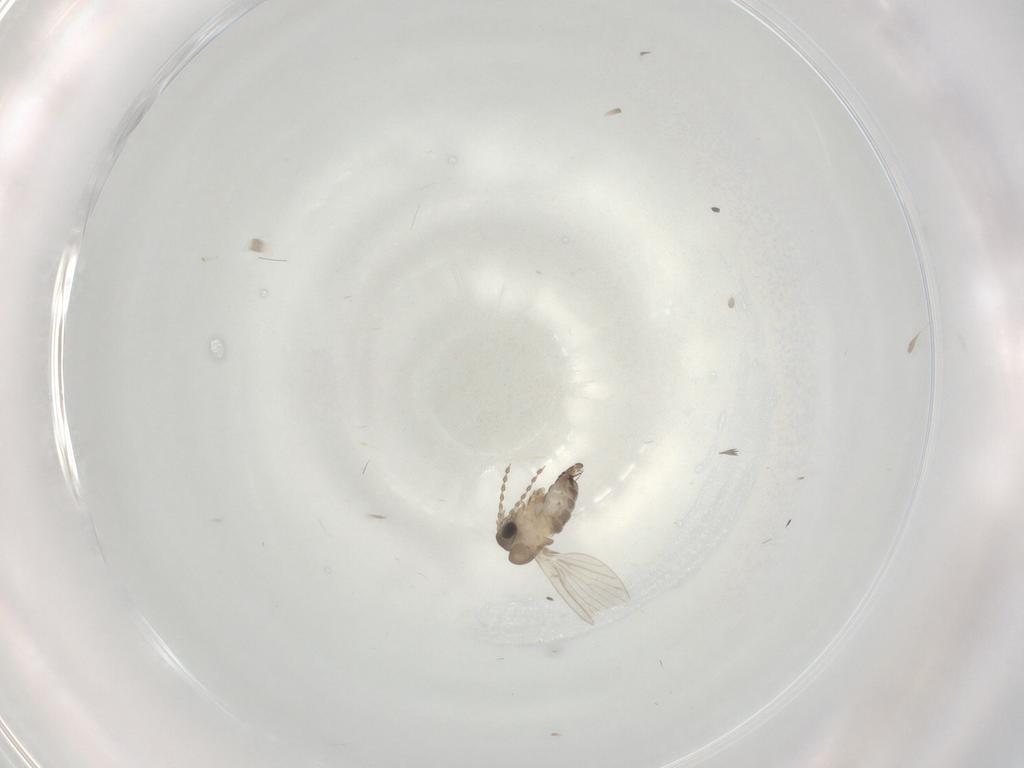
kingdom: Animalia
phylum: Arthropoda
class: Insecta
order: Diptera
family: Cecidomyiidae
